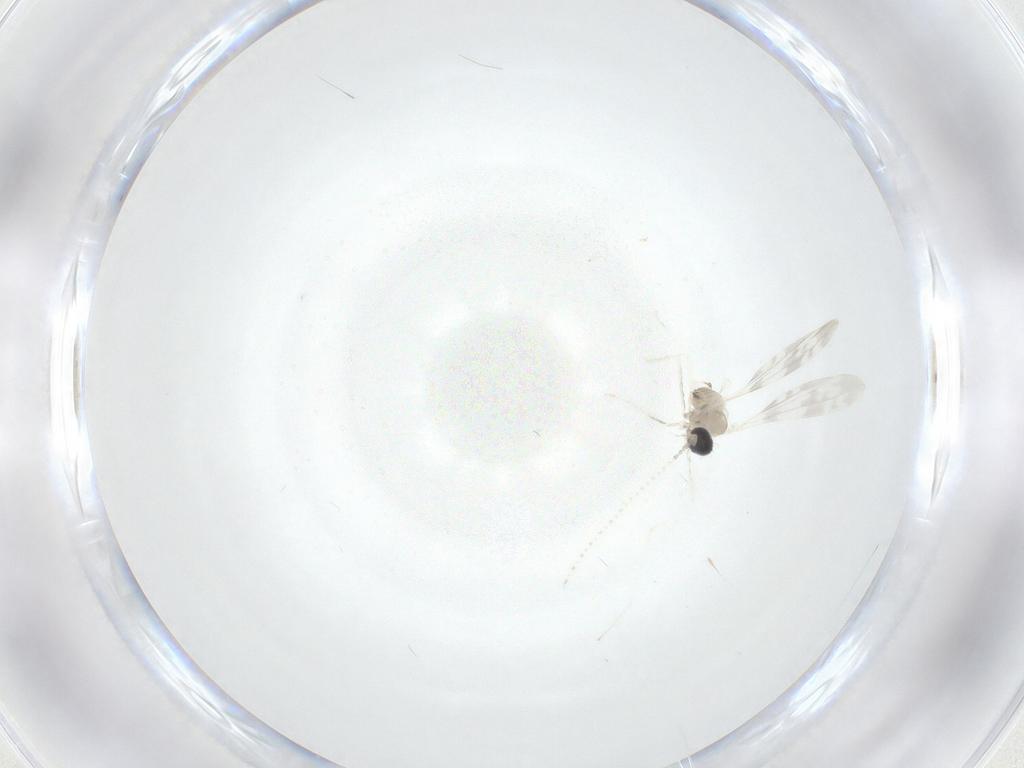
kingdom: Animalia
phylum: Arthropoda
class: Insecta
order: Diptera
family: Chironomidae
